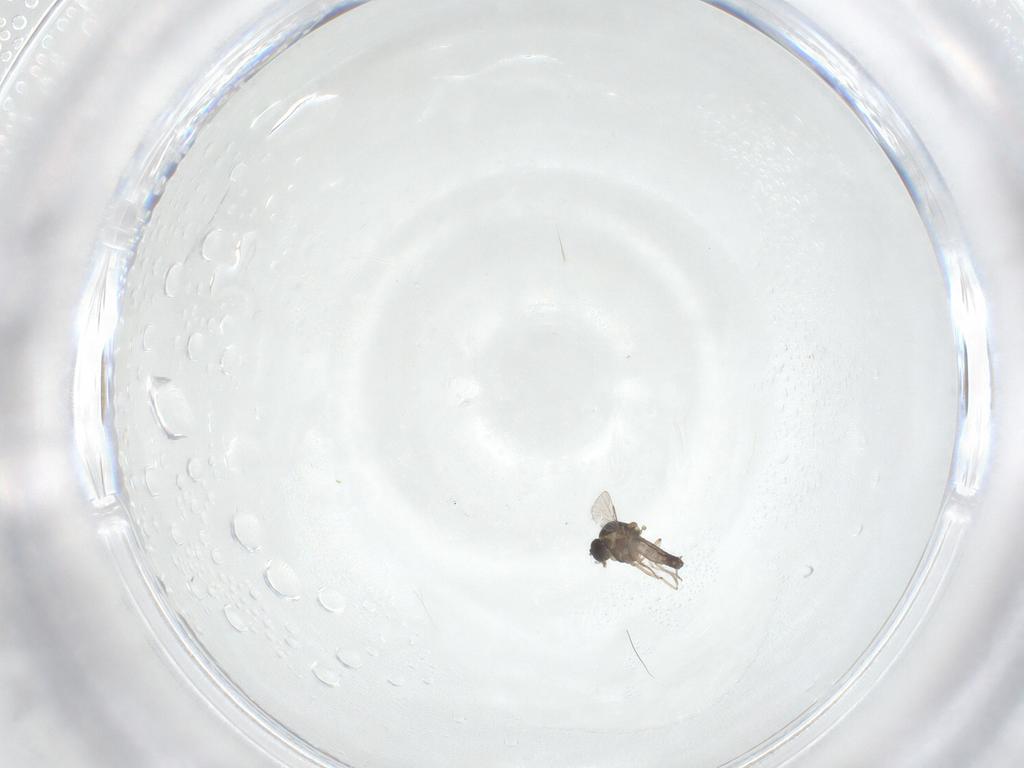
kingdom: Animalia
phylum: Arthropoda
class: Insecta
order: Diptera
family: Ceratopogonidae
